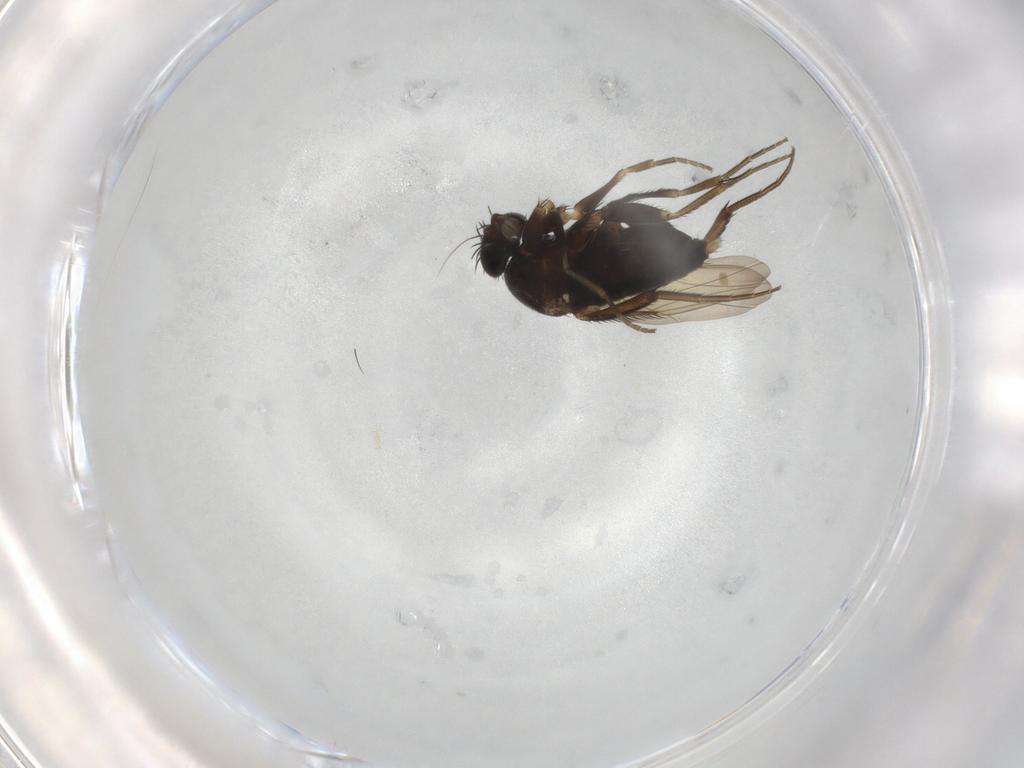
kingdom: Animalia
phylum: Arthropoda
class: Insecta
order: Diptera
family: Phoridae
